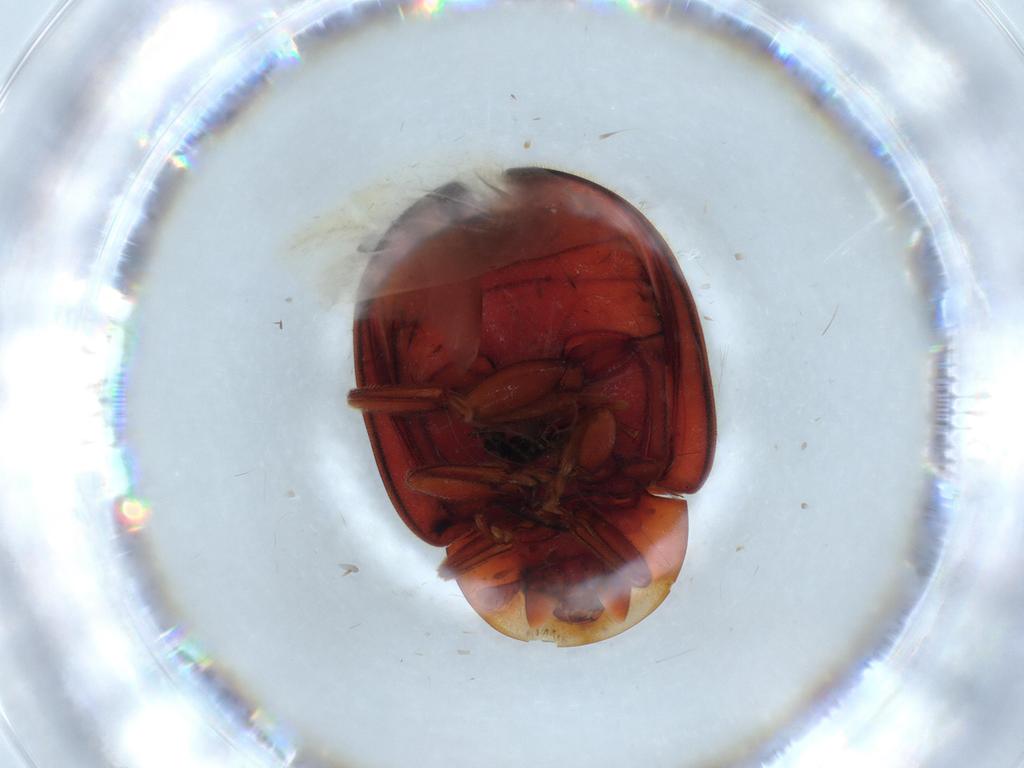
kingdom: Animalia
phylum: Arthropoda
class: Insecta
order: Coleoptera
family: Coccinellidae
